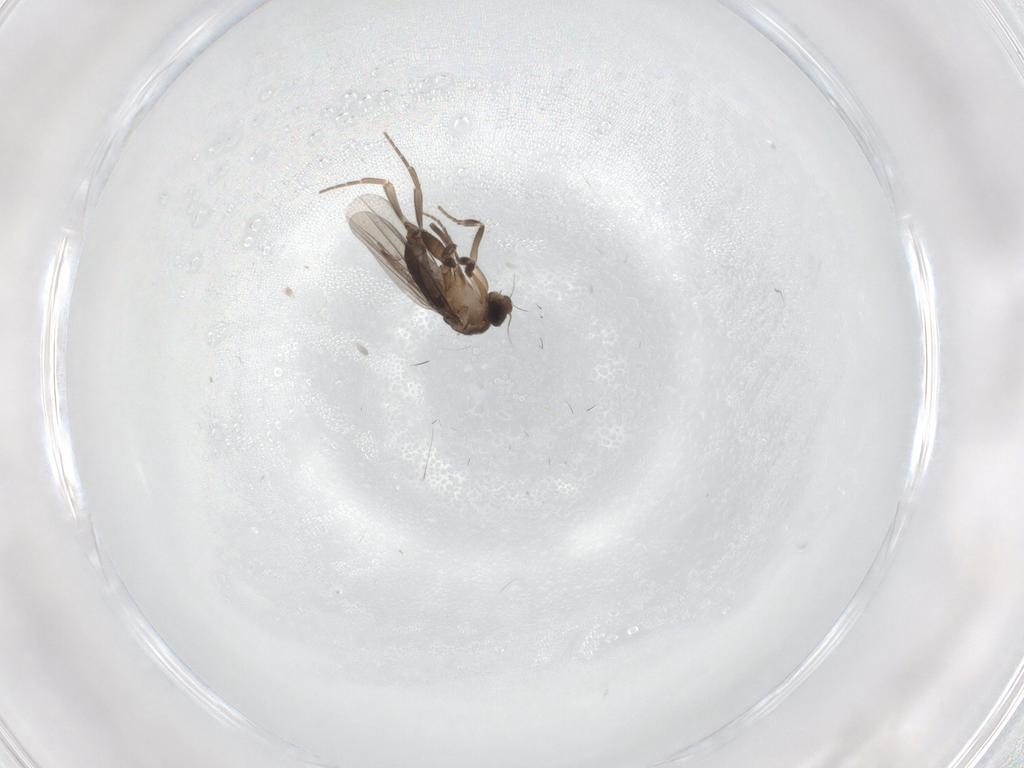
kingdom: Animalia
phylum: Arthropoda
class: Insecta
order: Diptera
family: Phoridae
